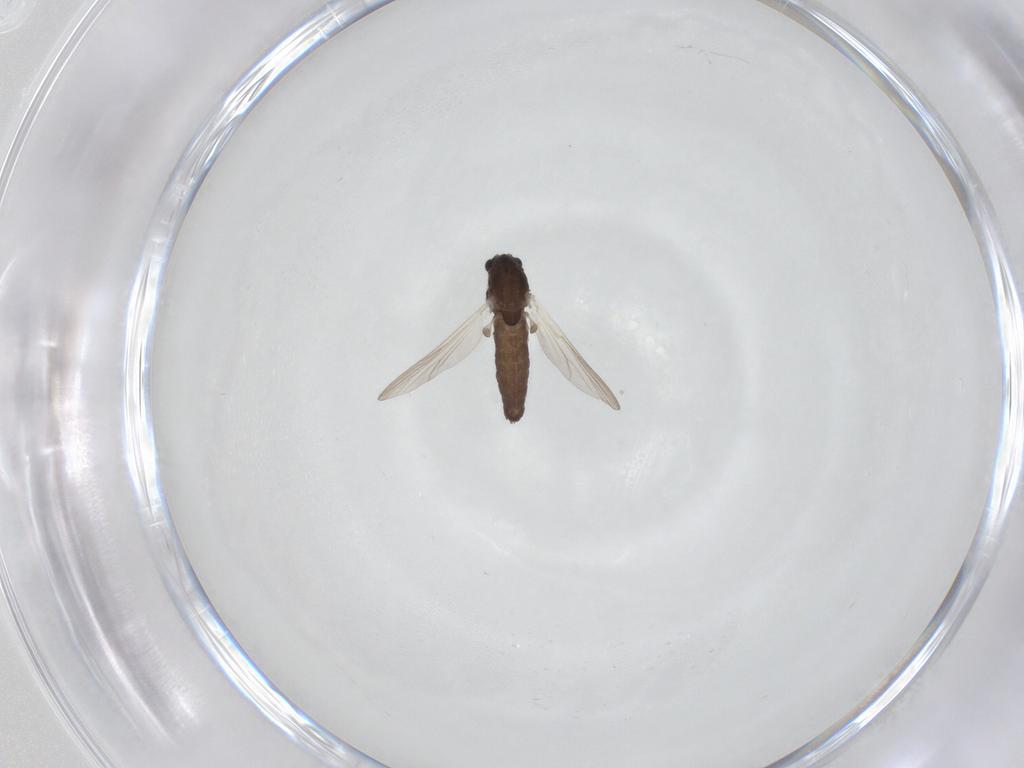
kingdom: Animalia
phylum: Arthropoda
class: Insecta
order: Diptera
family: Chironomidae
